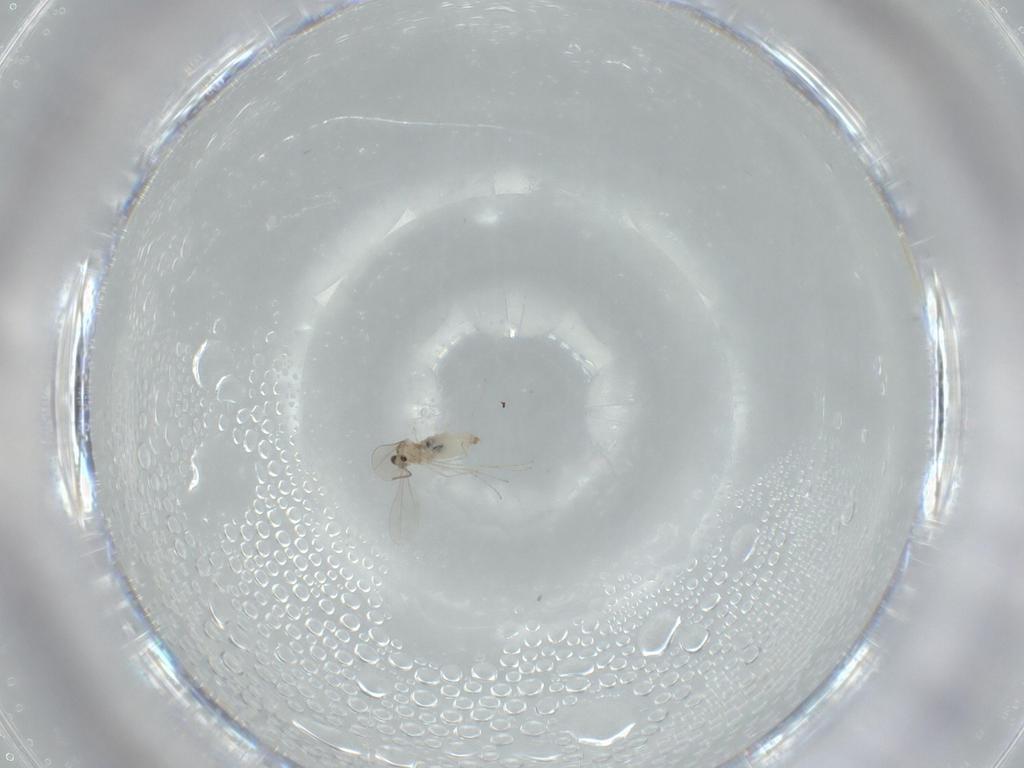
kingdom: Animalia
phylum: Arthropoda
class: Insecta
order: Diptera
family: Cecidomyiidae
